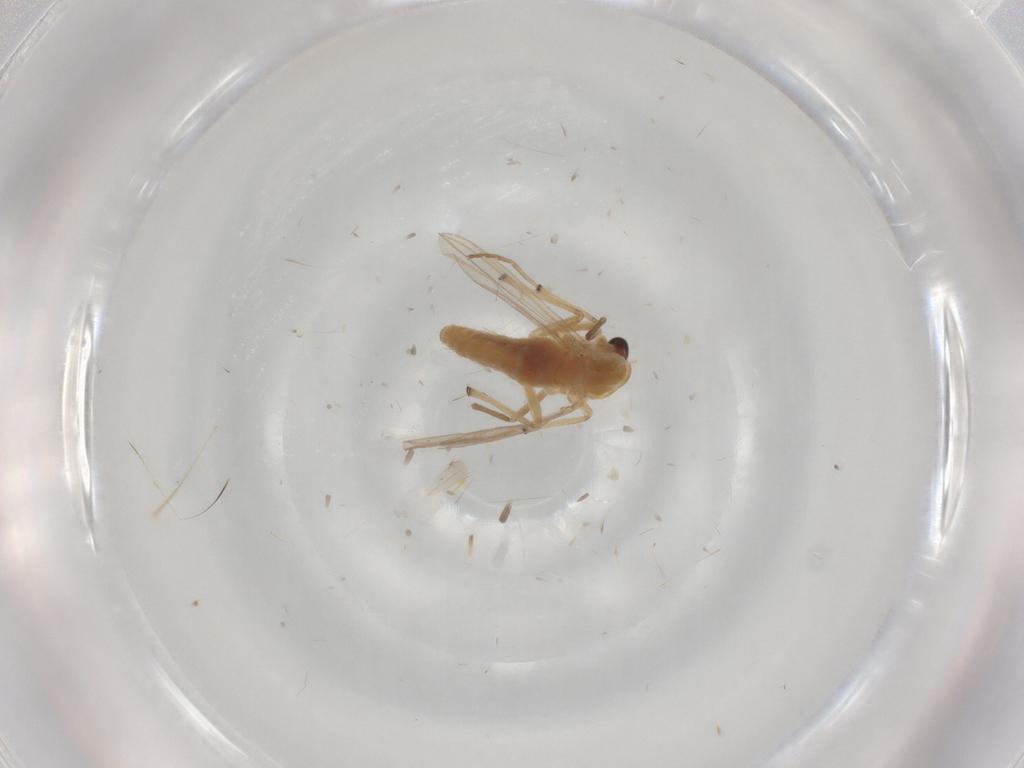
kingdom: Animalia
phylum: Arthropoda
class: Insecta
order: Diptera
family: Chironomidae
